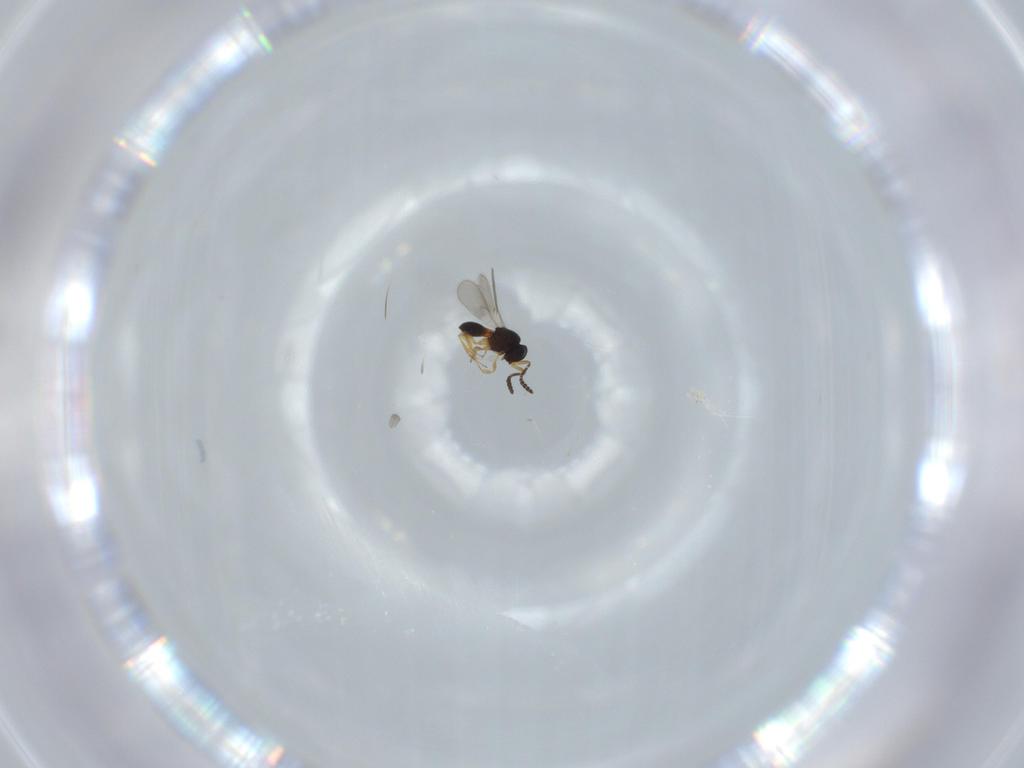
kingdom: Animalia
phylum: Arthropoda
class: Insecta
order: Hymenoptera
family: Scelionidae
